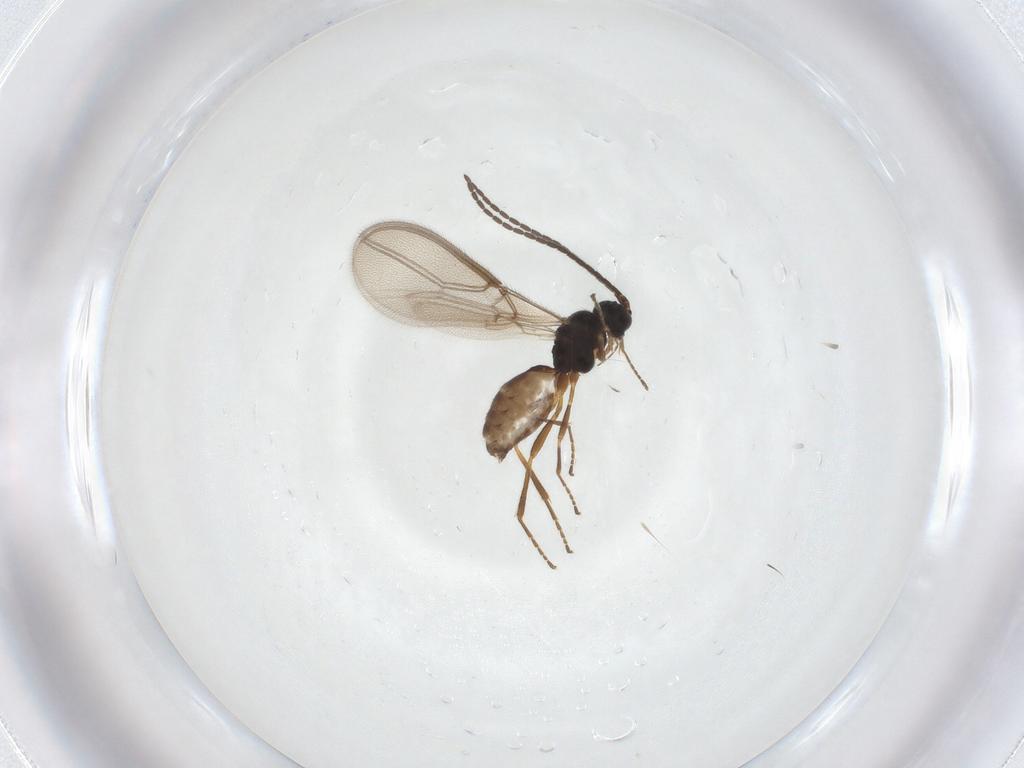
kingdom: Animalia
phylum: Arthropoda
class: Insecta
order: Hymenoptera
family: Braconidae
